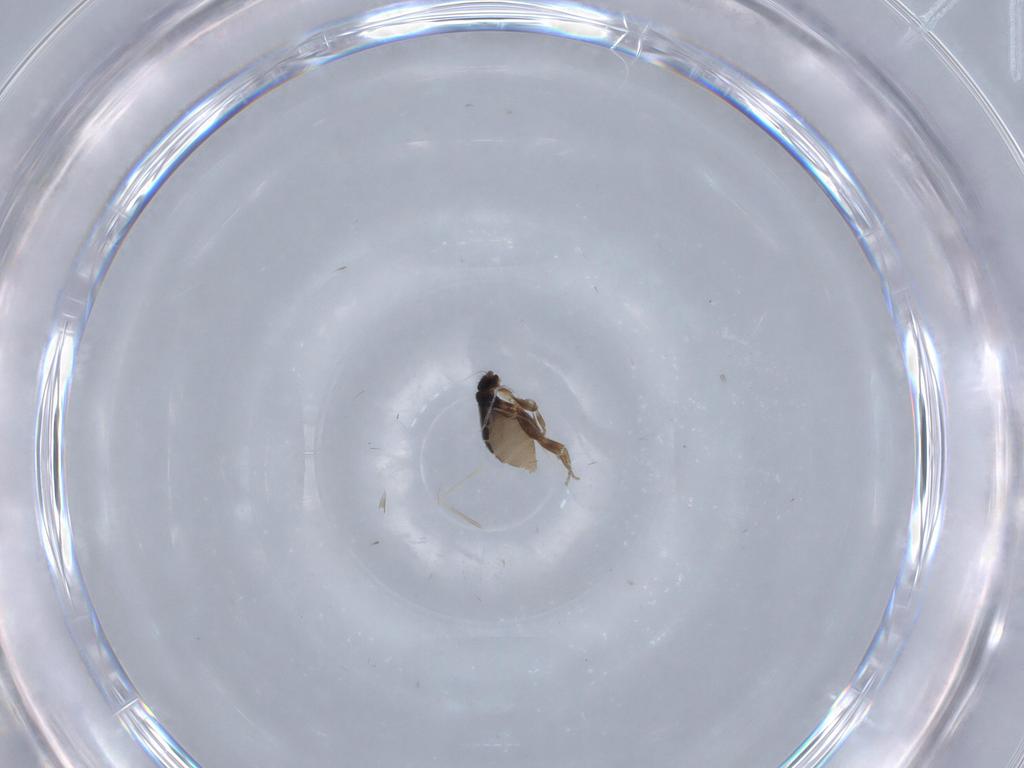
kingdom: Animalia
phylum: Arthropoda
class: Insecta
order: Diptera
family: Cecidomyiidae
